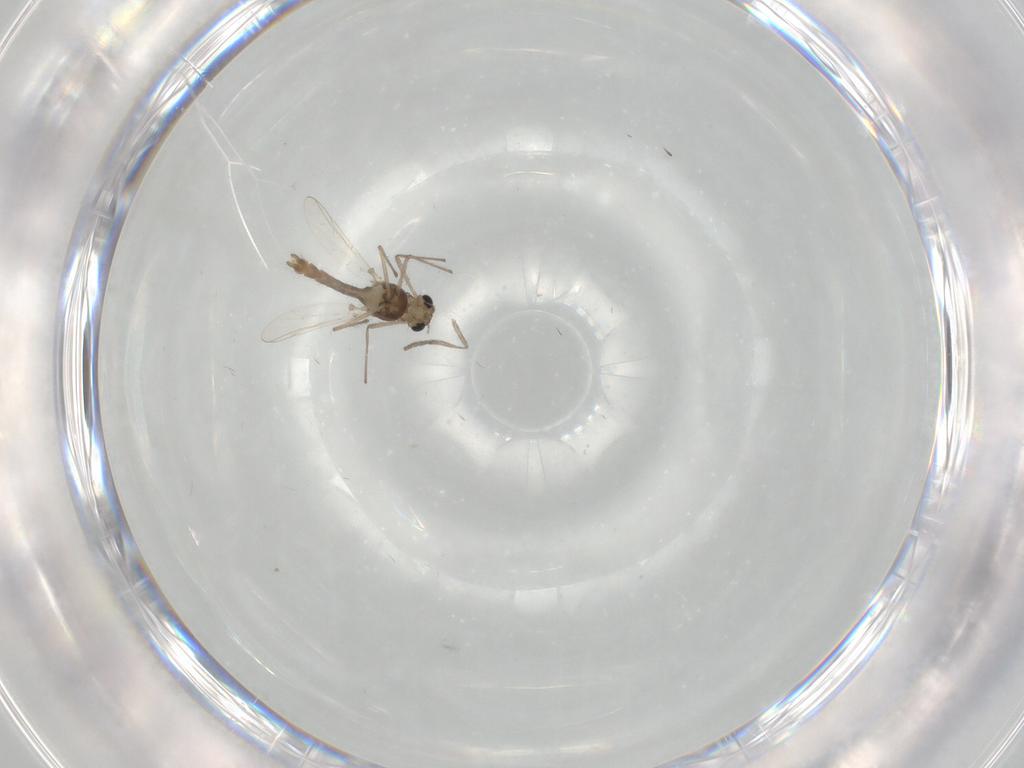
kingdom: Animalia
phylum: Arthropoda
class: Insecta
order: Diptera
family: Chironomidae
